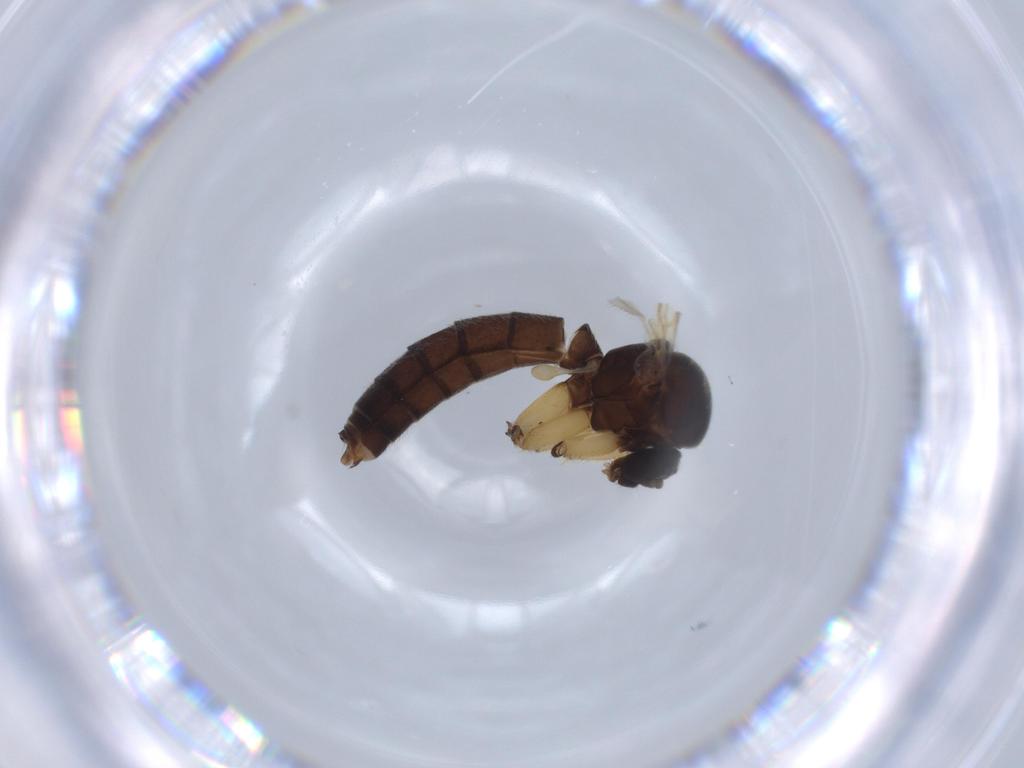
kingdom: Animalia
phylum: Arthropoda
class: Insecta
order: Diptera
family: Mycetophilidae
